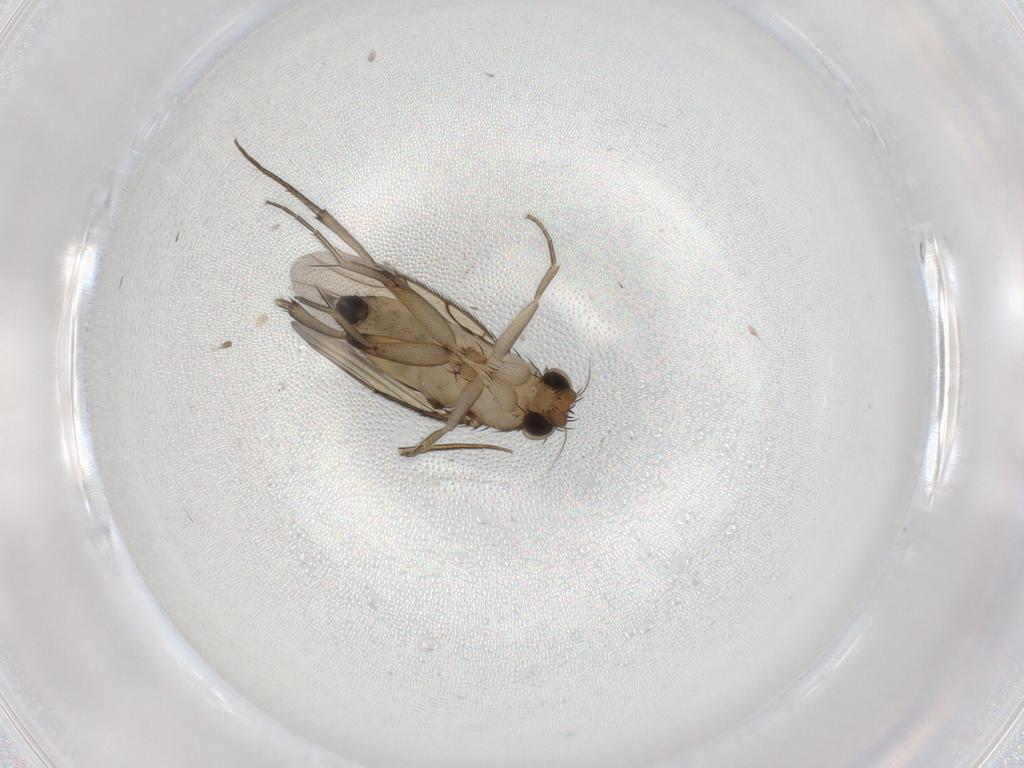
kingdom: Animalia
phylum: Arthropoda
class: Insecta
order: Diptera
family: Phoridae
